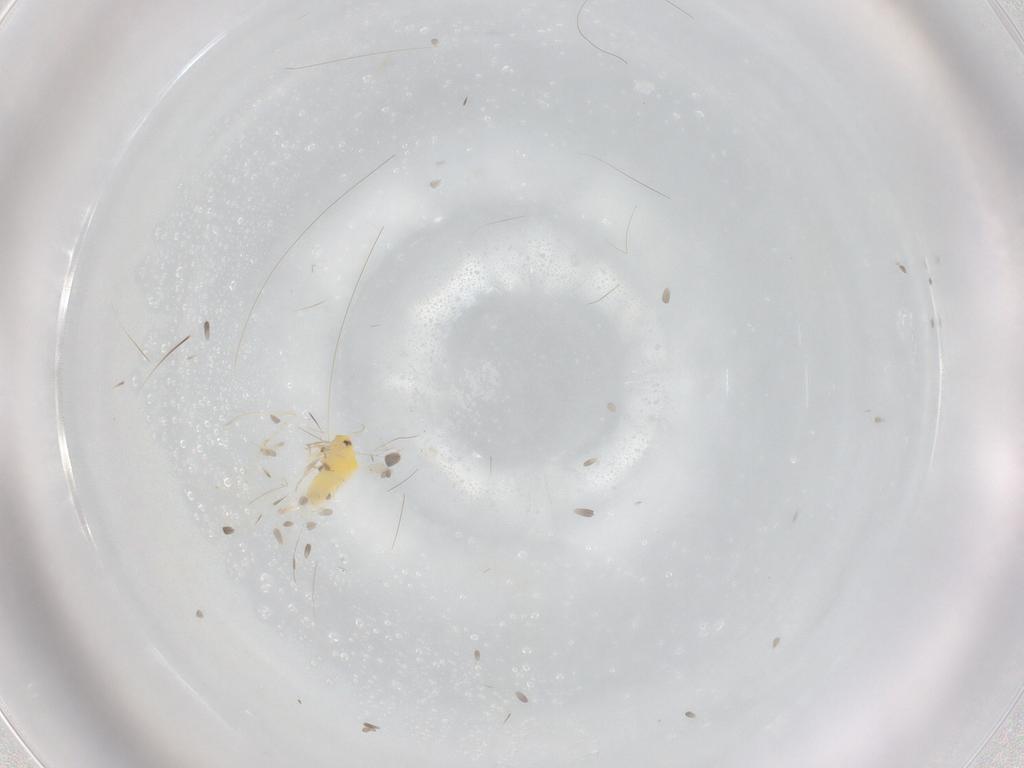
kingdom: Animalia
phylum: Arthropoda
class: Insecta
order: Hemiptera
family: Aleyrodidae
